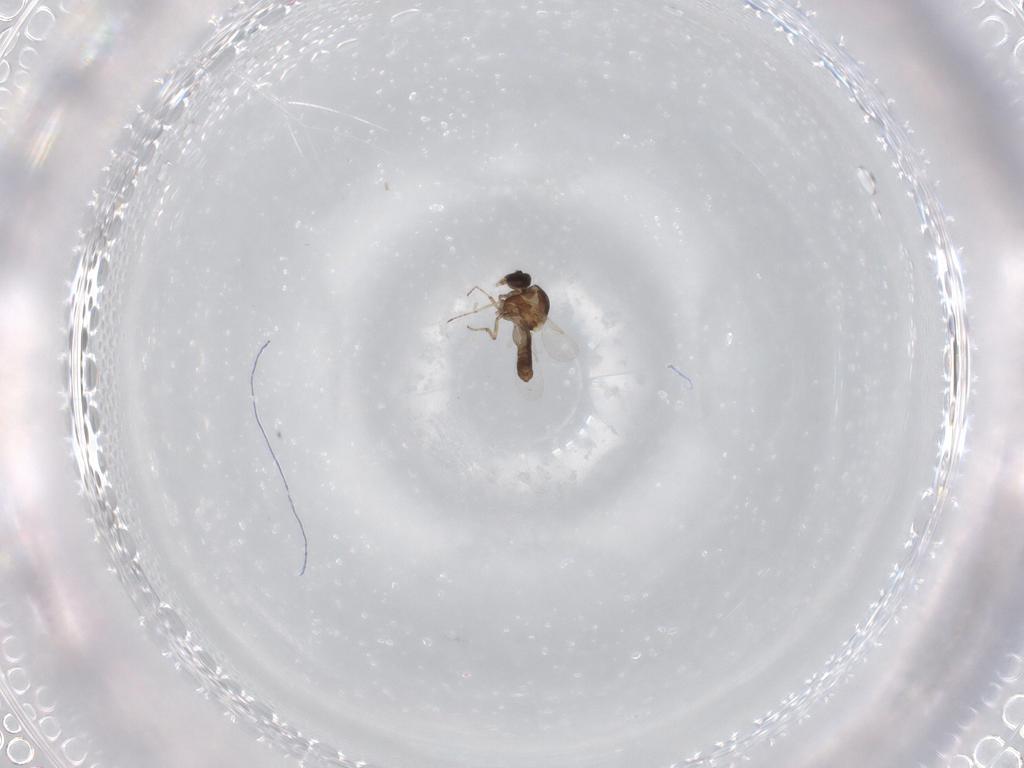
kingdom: Animalia
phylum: Arthropoda
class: Insecta
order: Diptera
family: Ceratopogonidae
